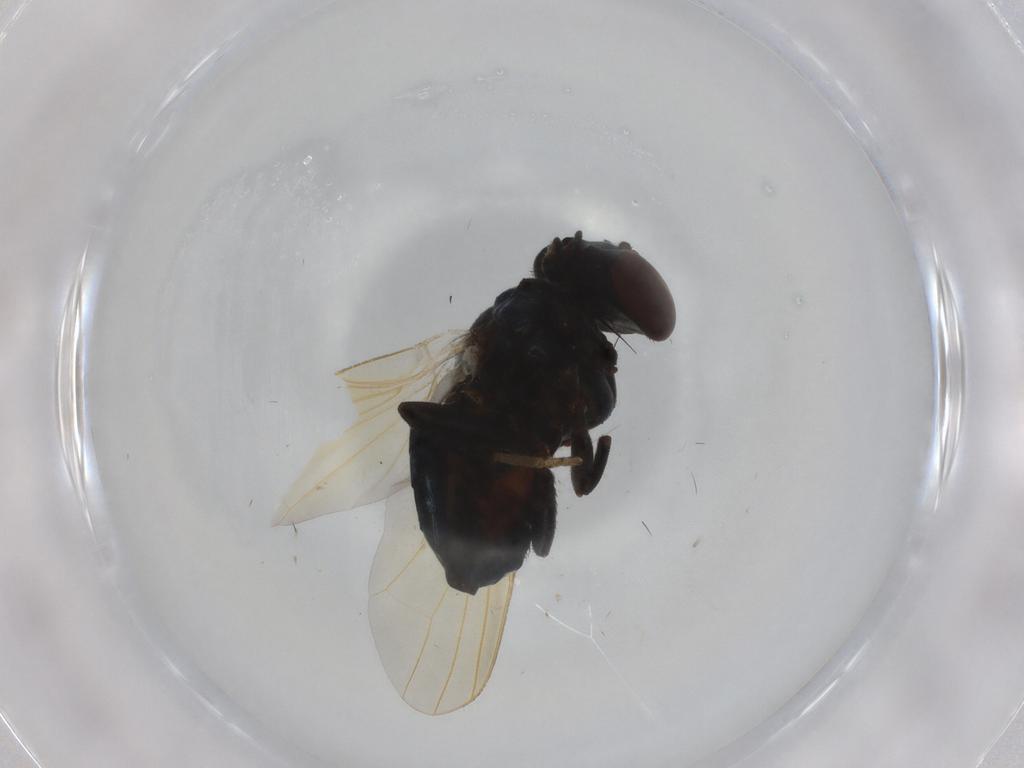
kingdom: Animalia
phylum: Arthropoda
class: Insecta
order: Diptera
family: Lonchaeidae
